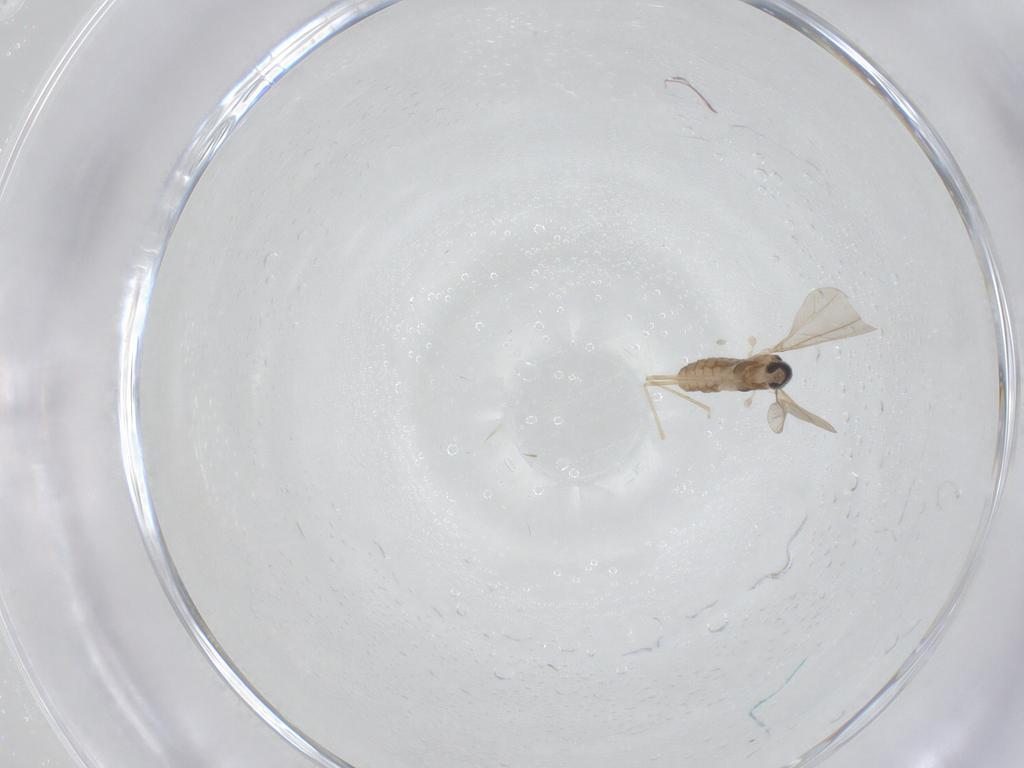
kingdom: Animalia
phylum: Arthropoda
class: Insecta
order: Diptera
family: Cecidomyiidae
